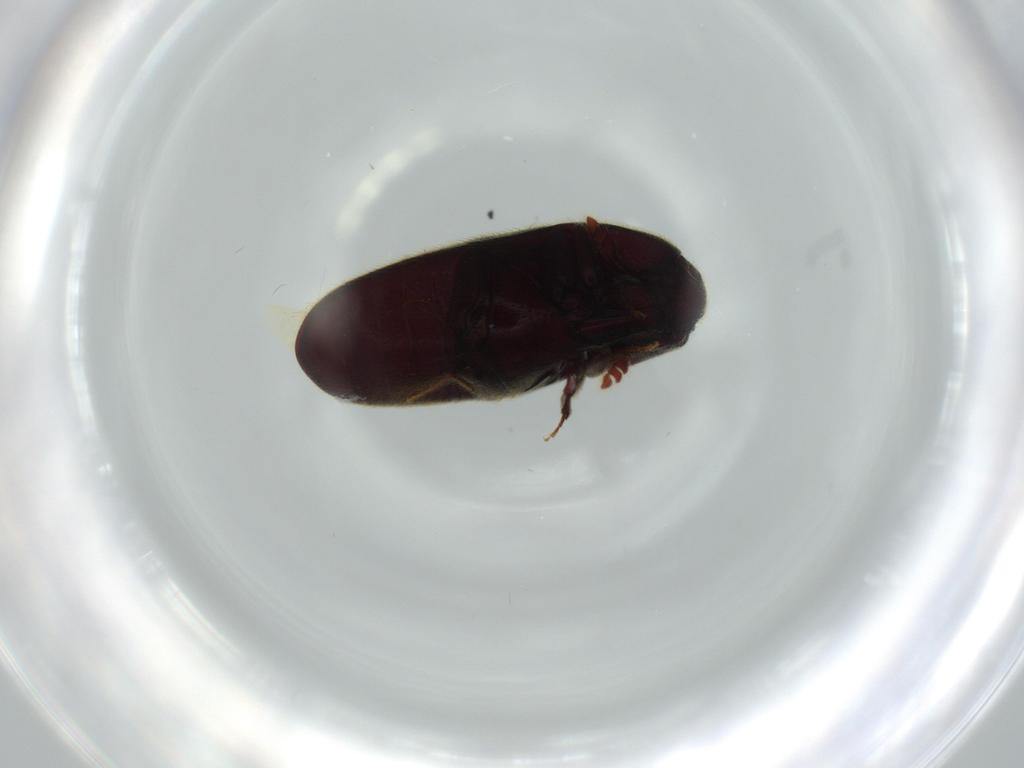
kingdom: Animalia
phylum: Arthropoda
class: Insecta
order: Coleoptera
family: Throscidae
